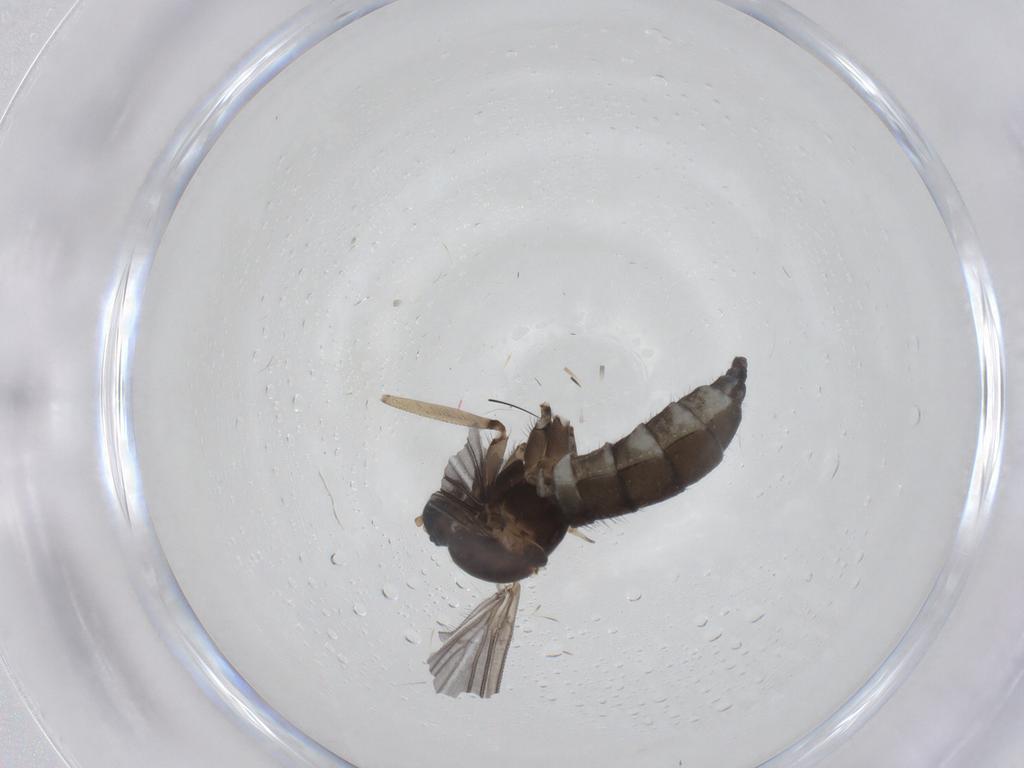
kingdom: Animalia
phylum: Arthropoda
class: Insecta
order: Diptera
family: Sciaridae
